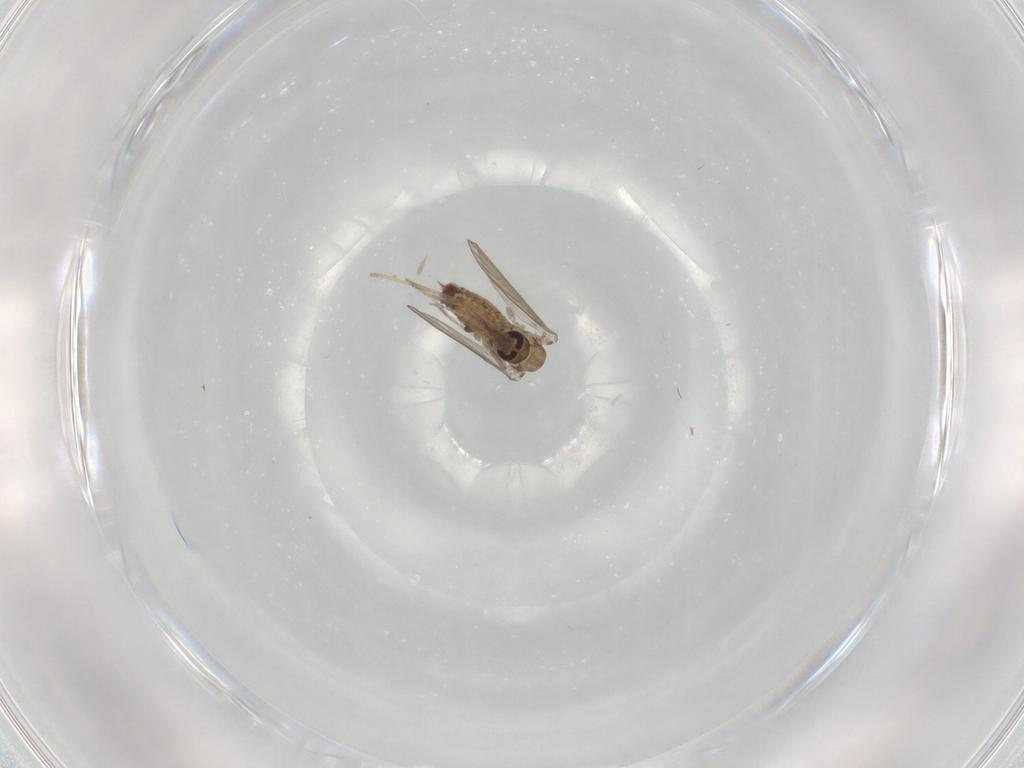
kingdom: Animalia
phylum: Arthropoda
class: Insecta
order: Diptera
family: Psychodidae
